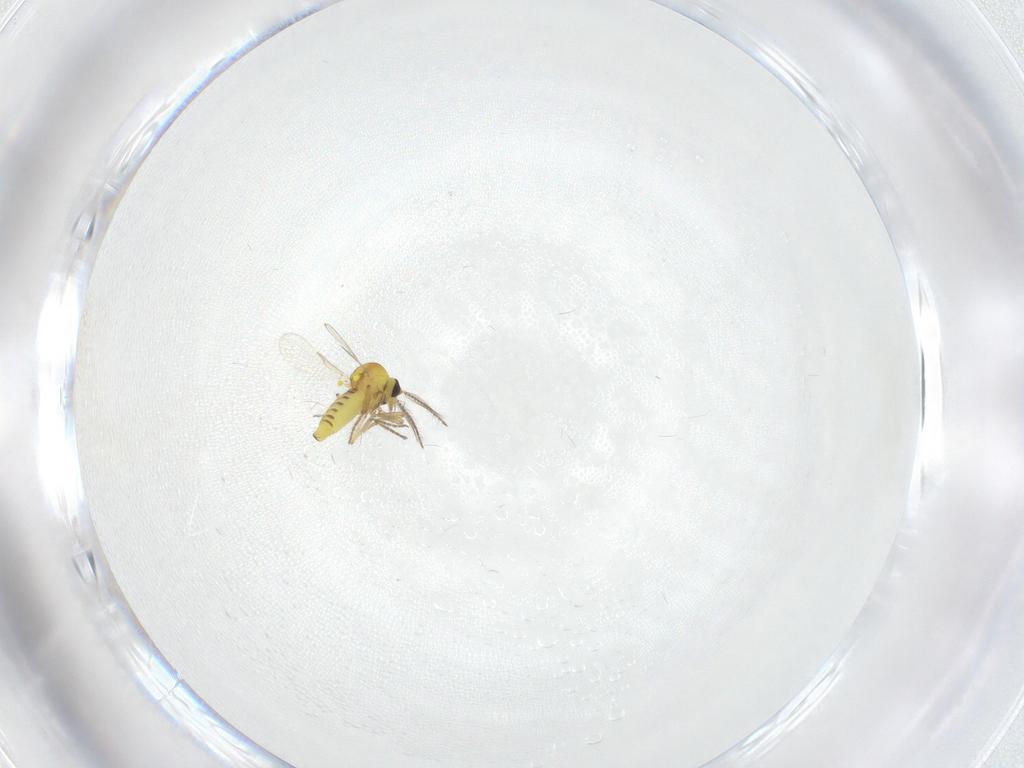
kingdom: Animalia
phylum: Arthropoda
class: Insecta
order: Diptera
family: Ceratopogonidae
